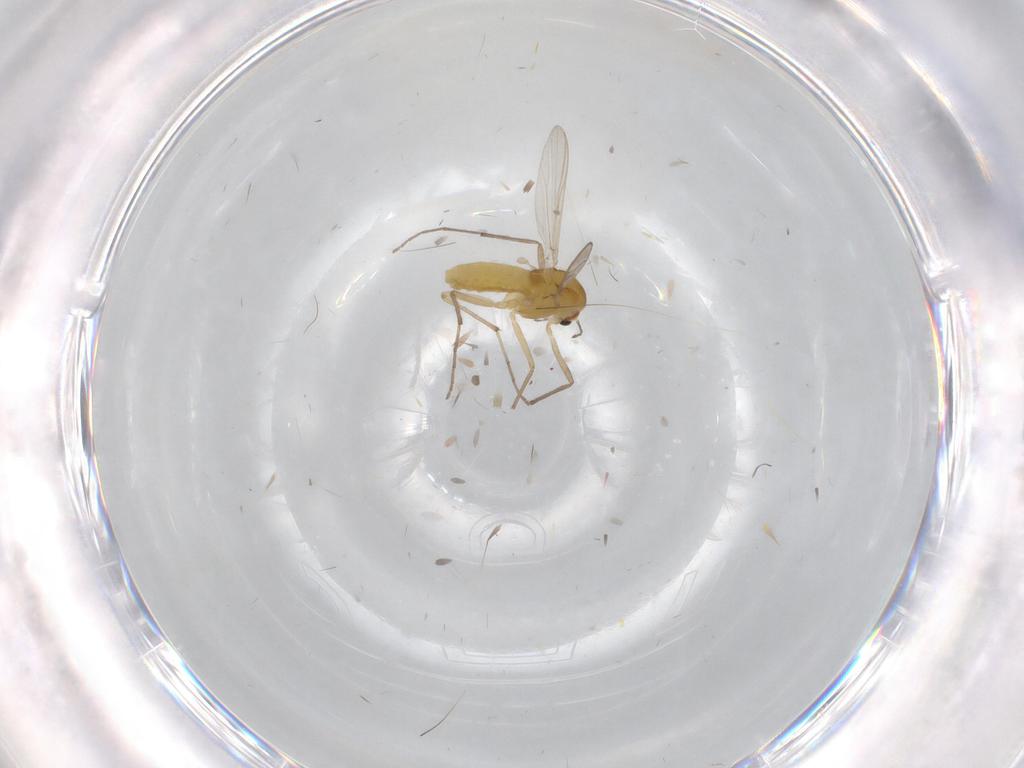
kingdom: Animalia
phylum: Arthropoda
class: Insecta
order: Diptera
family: Chironomidae
